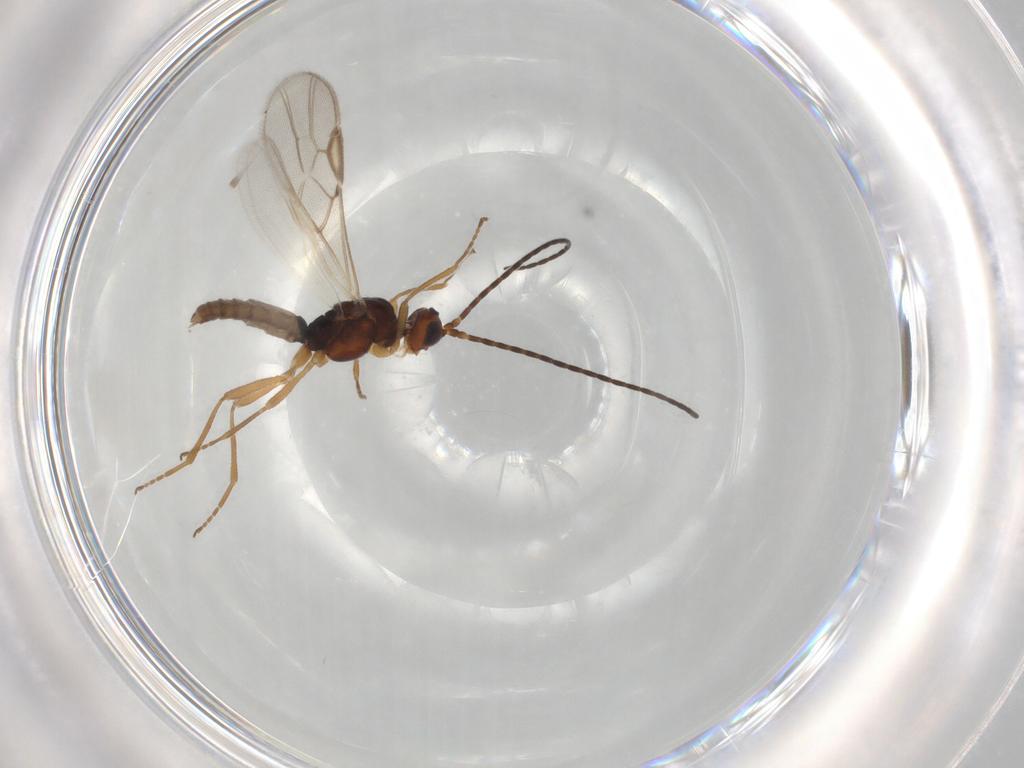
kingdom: Animalia
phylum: Arthropoda
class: Insecta
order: Hymenoptera
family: Braconidae
